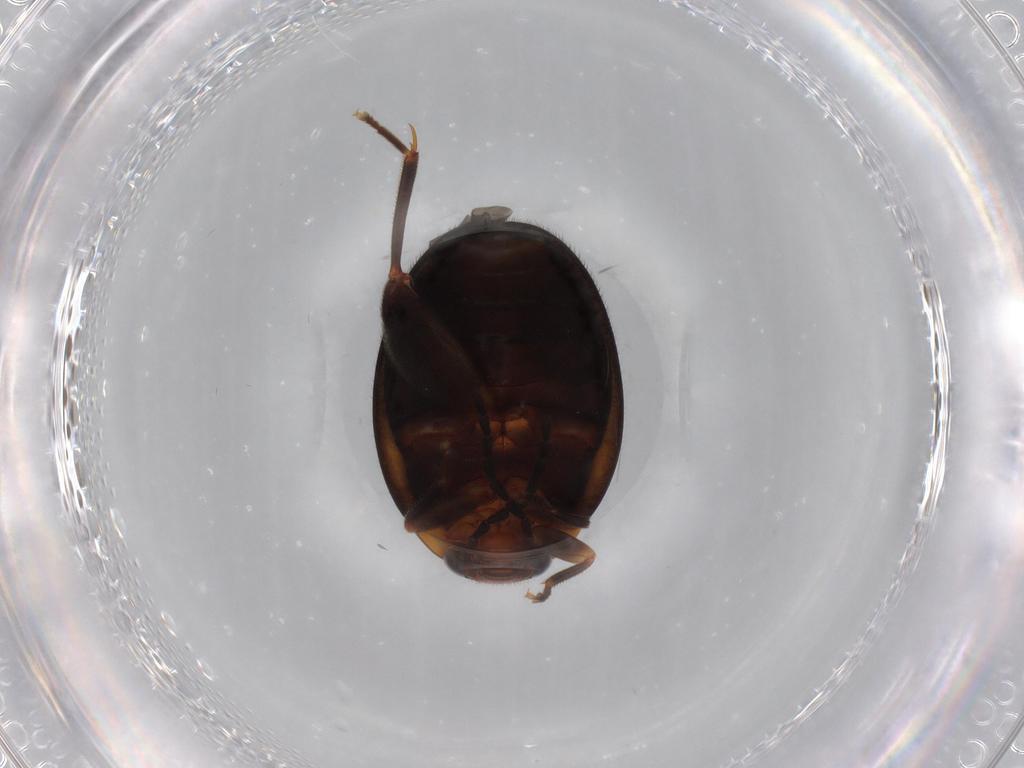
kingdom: Animalia
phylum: Arthropoda
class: Insecta
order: Coleoptera
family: Scirtidae
